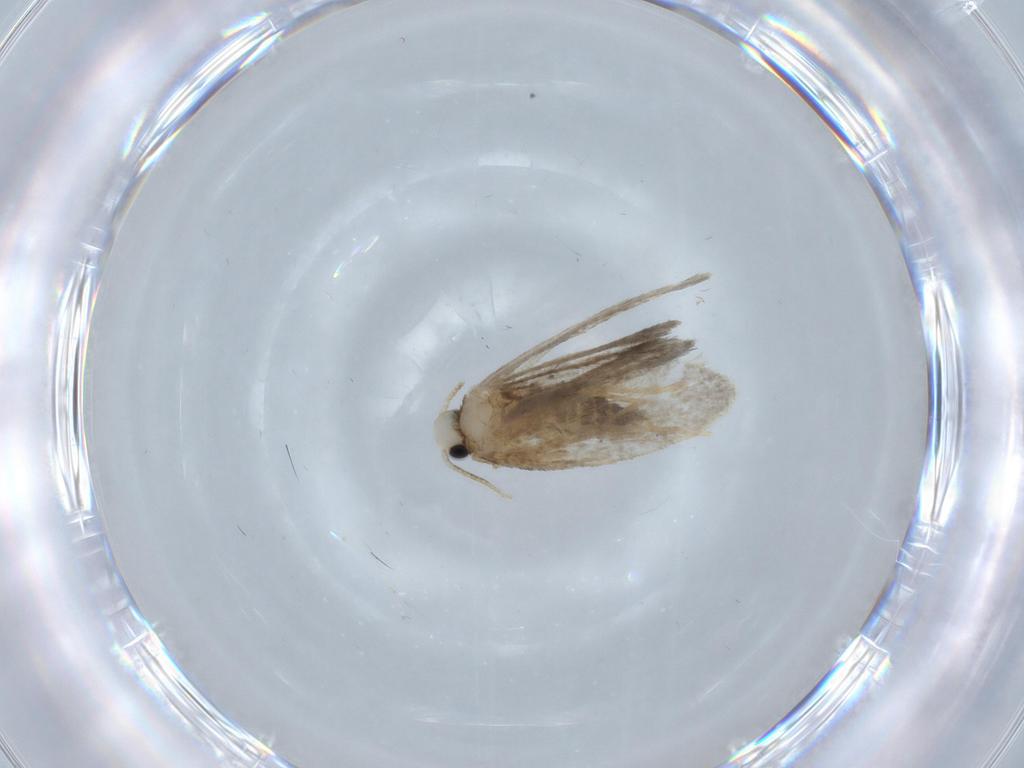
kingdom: Animalia
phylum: Arthropoda
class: Insecta
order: Lepidoptera
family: Psychidae
